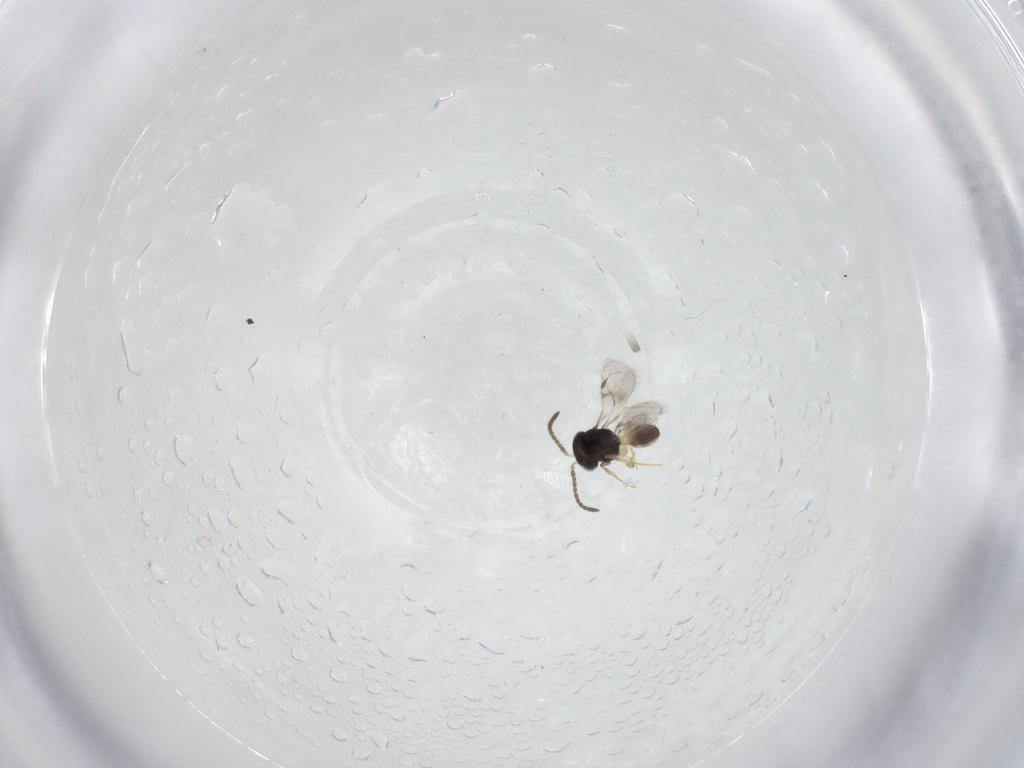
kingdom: Animalia
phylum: Arthropoda
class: Insecta
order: Hymenoptera
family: Scelionidae
